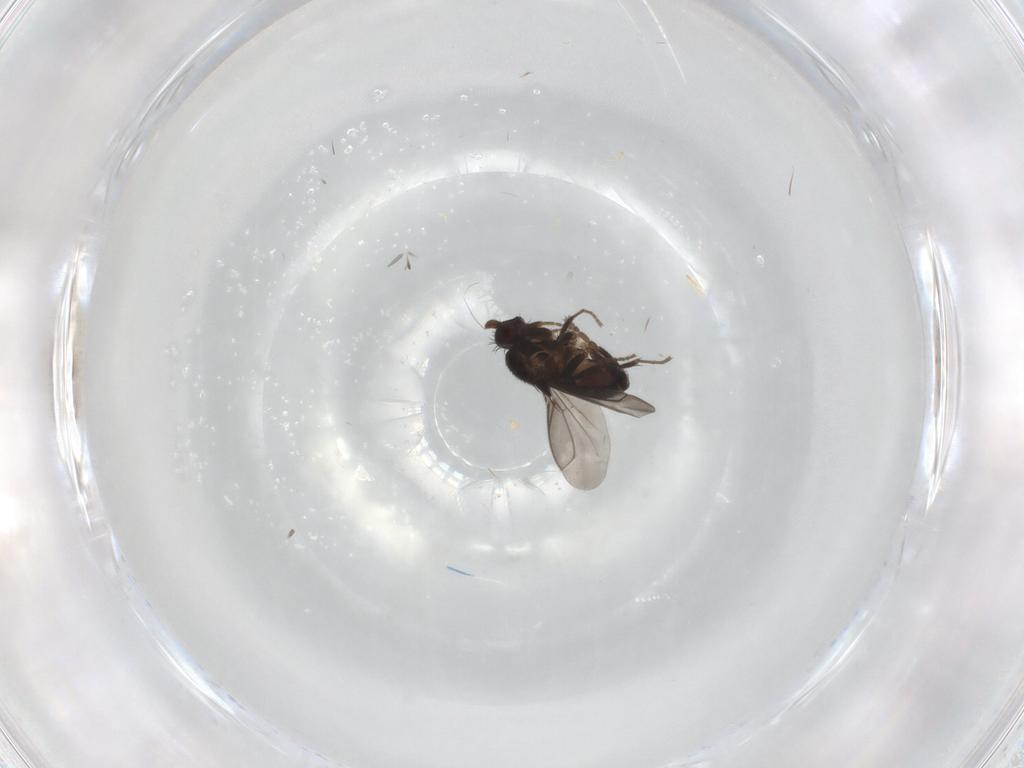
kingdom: Animalia
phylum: Arthropoda
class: Insecta
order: Diptera
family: Sphaeroceridae
